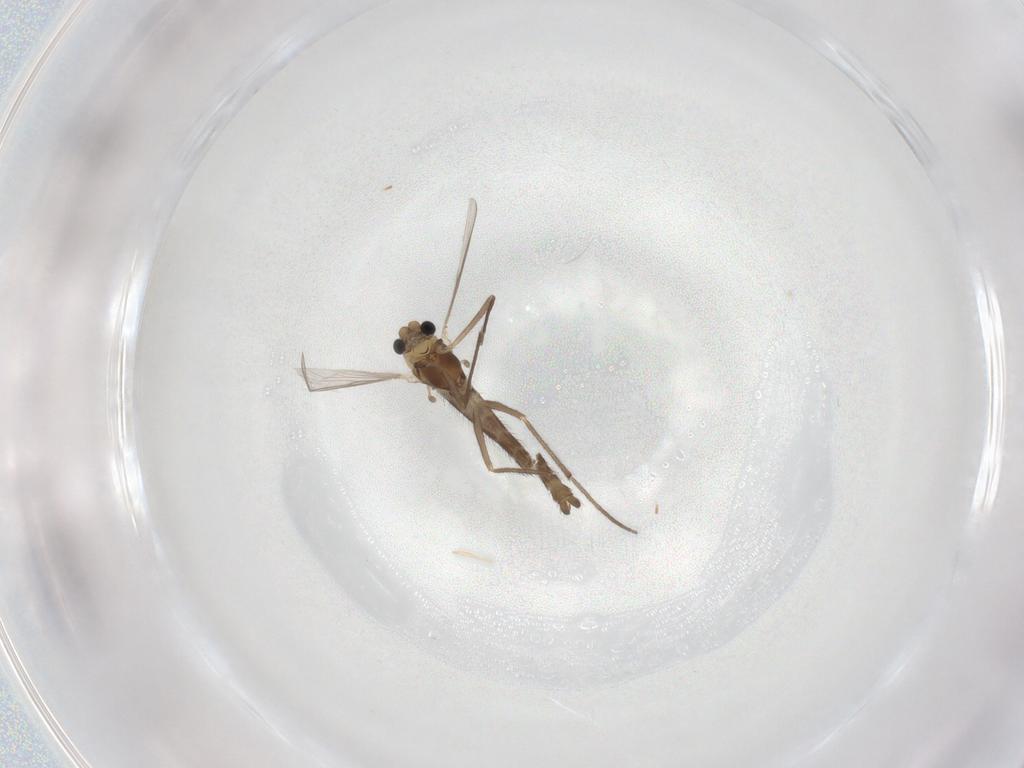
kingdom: Animalia
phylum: Arthropoda
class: Insecta
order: Diptera
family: Chironomidae
